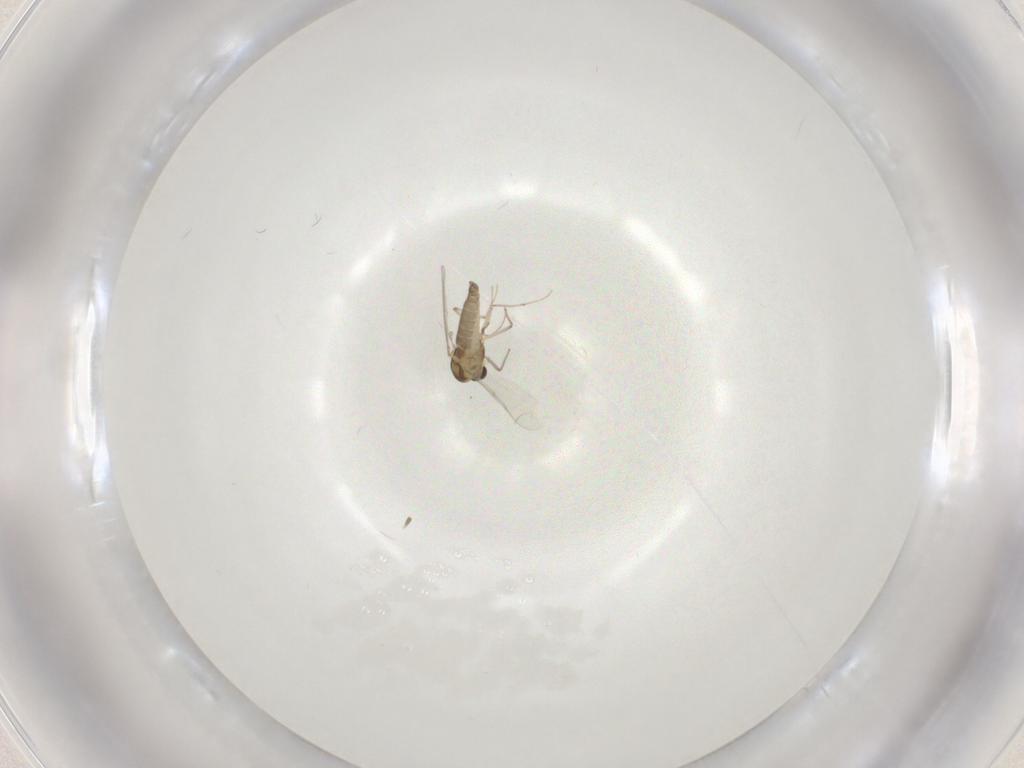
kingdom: Animalia
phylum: Arthropoda
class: Insecta
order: Diptera
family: Chironomidae
